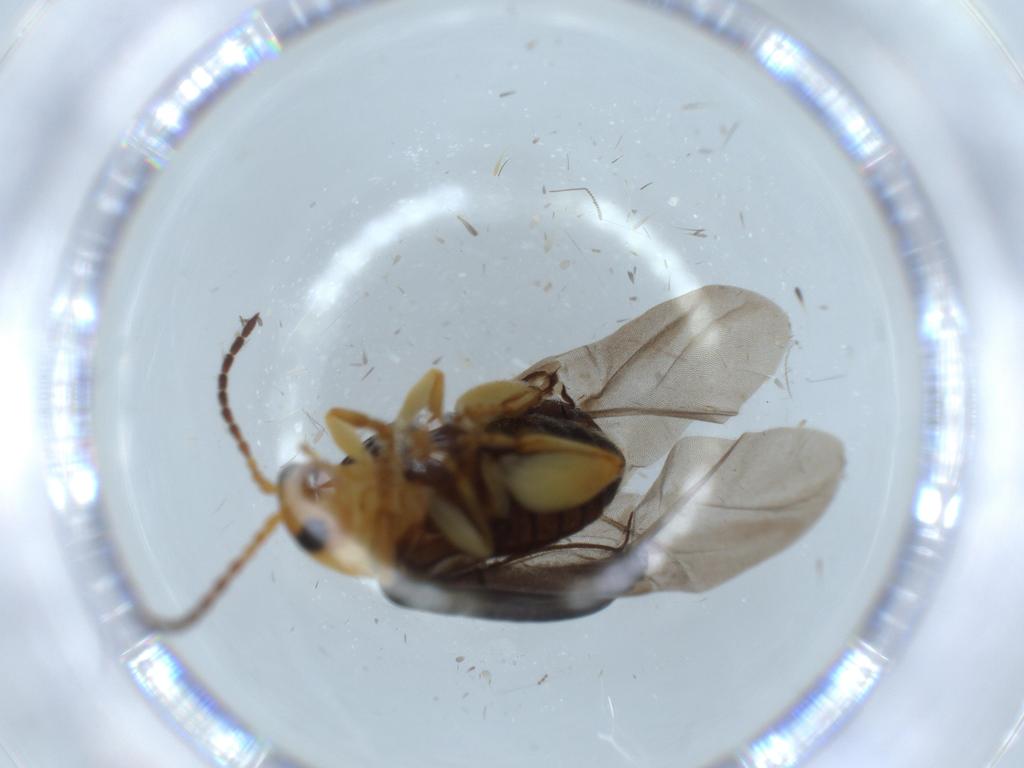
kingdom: Animalia
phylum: Arthropoda
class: Insecta
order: Coleoptera
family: Chrysomelidae
